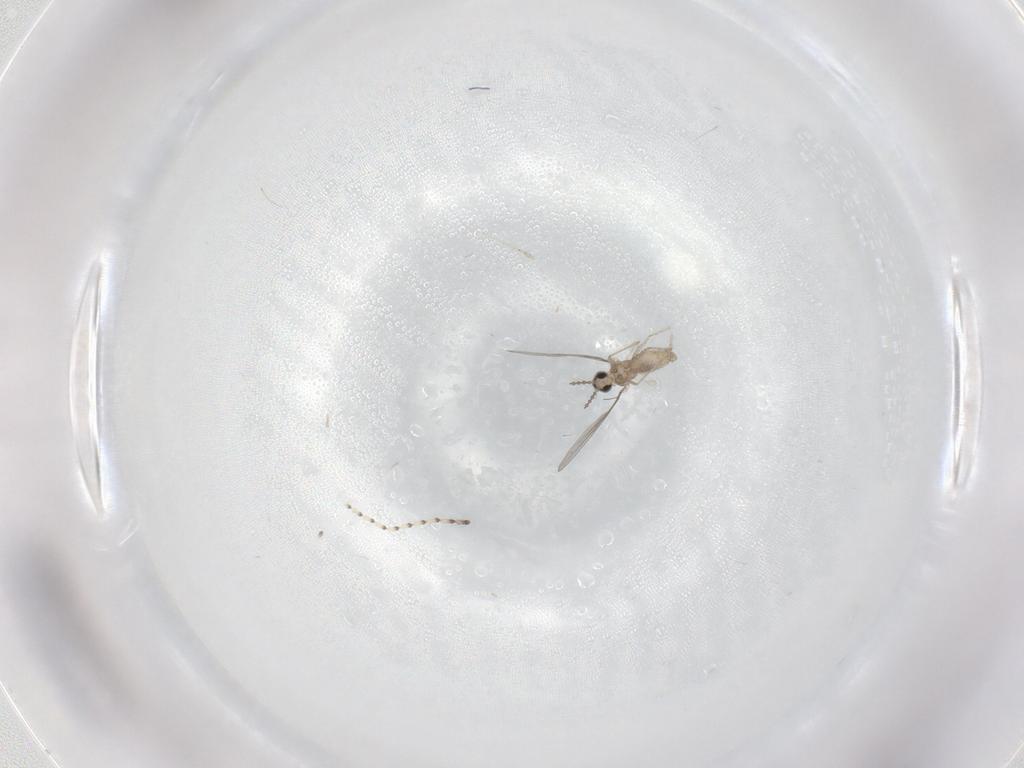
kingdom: Animalia
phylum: Arthropoda
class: Insecta
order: Diptera
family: Cecidomyiidae
